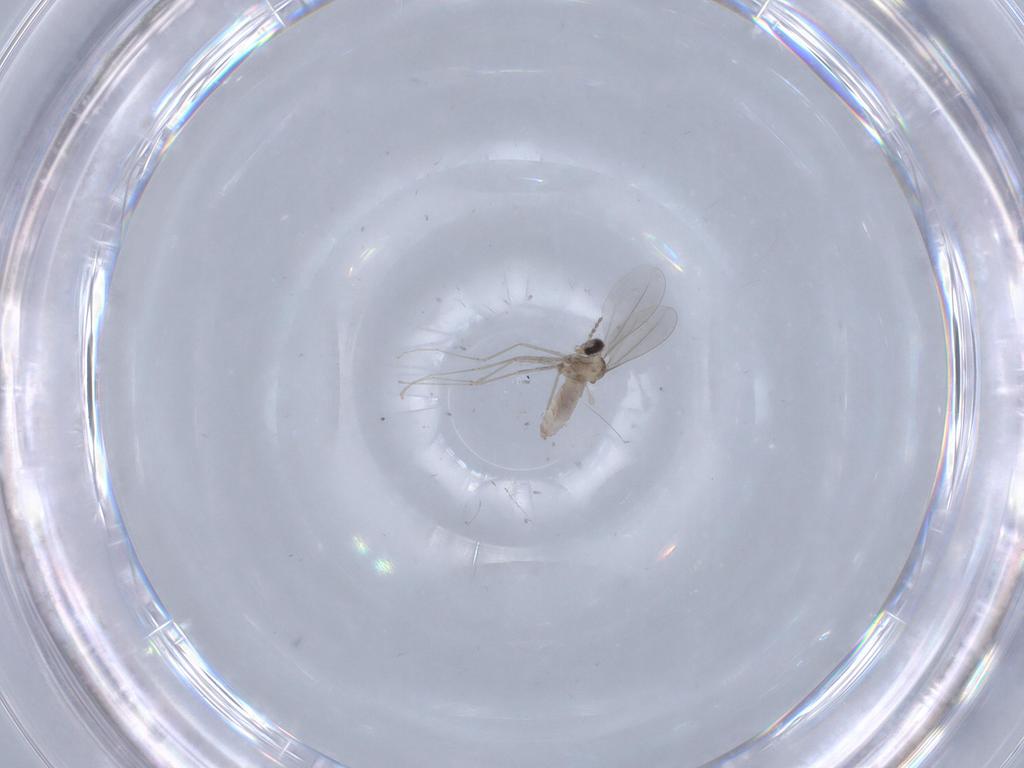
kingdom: Animalia
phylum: Arthropoda
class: Insecta
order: Diptera
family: Cecidomyiidae
